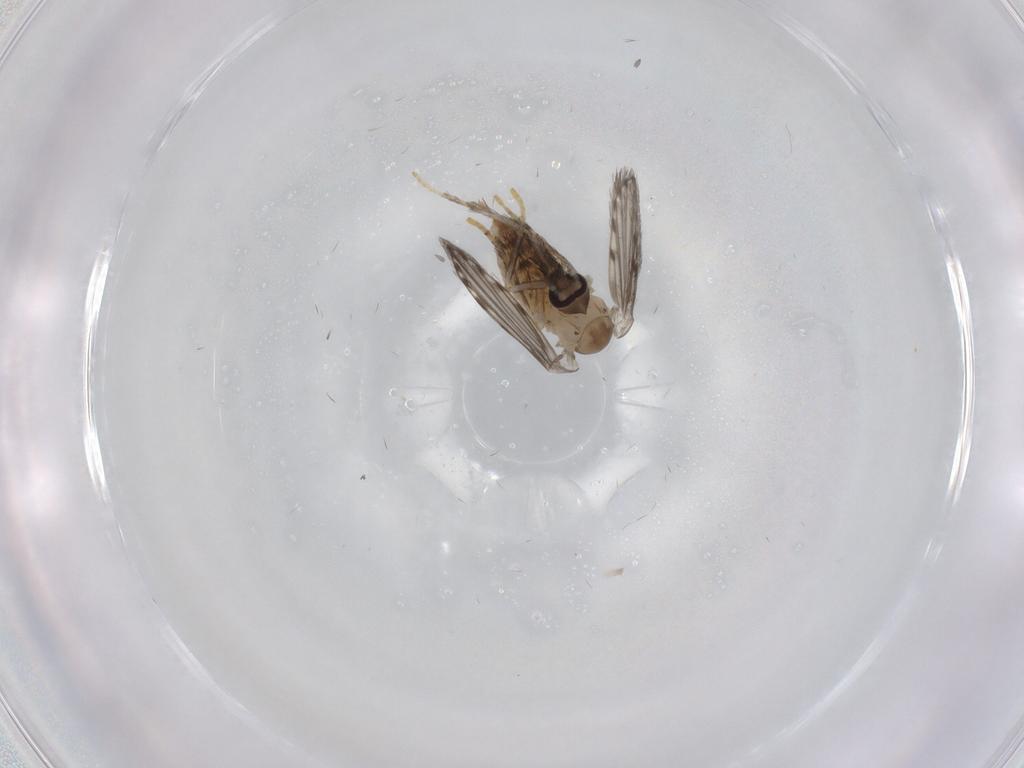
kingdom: Animalia
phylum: Arthropoda
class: Insecta
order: Diptera
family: Psychodidae
